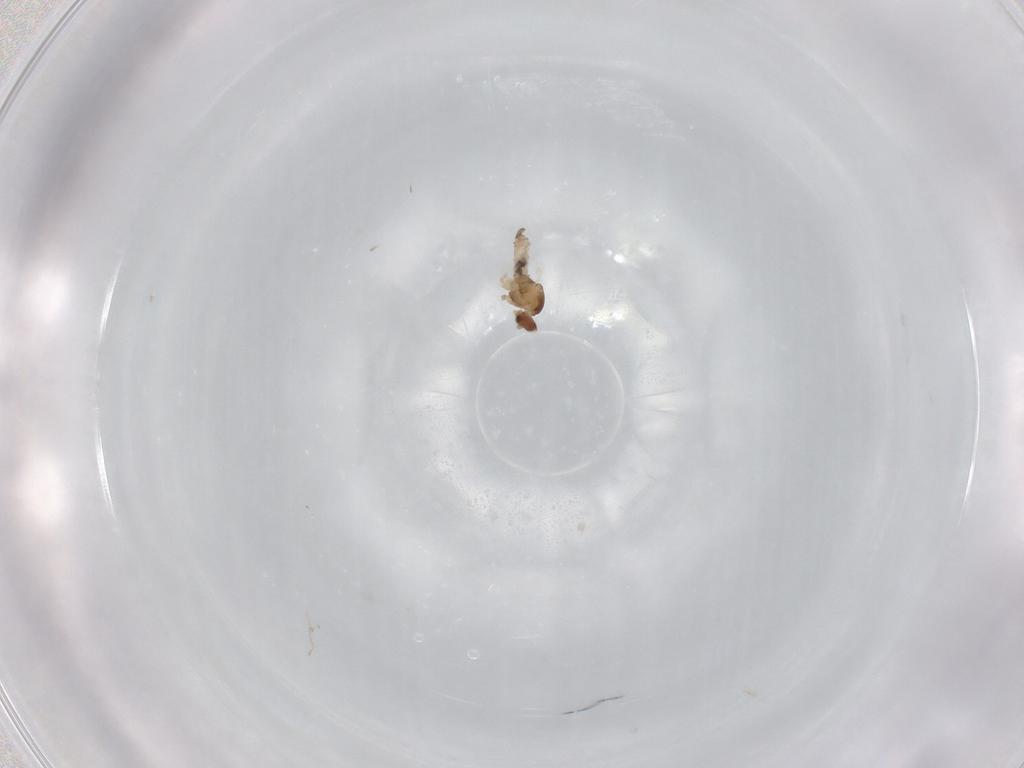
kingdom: Animalia
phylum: Arthropoda
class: Insecta
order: Diptera
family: Cecidomyiidae
